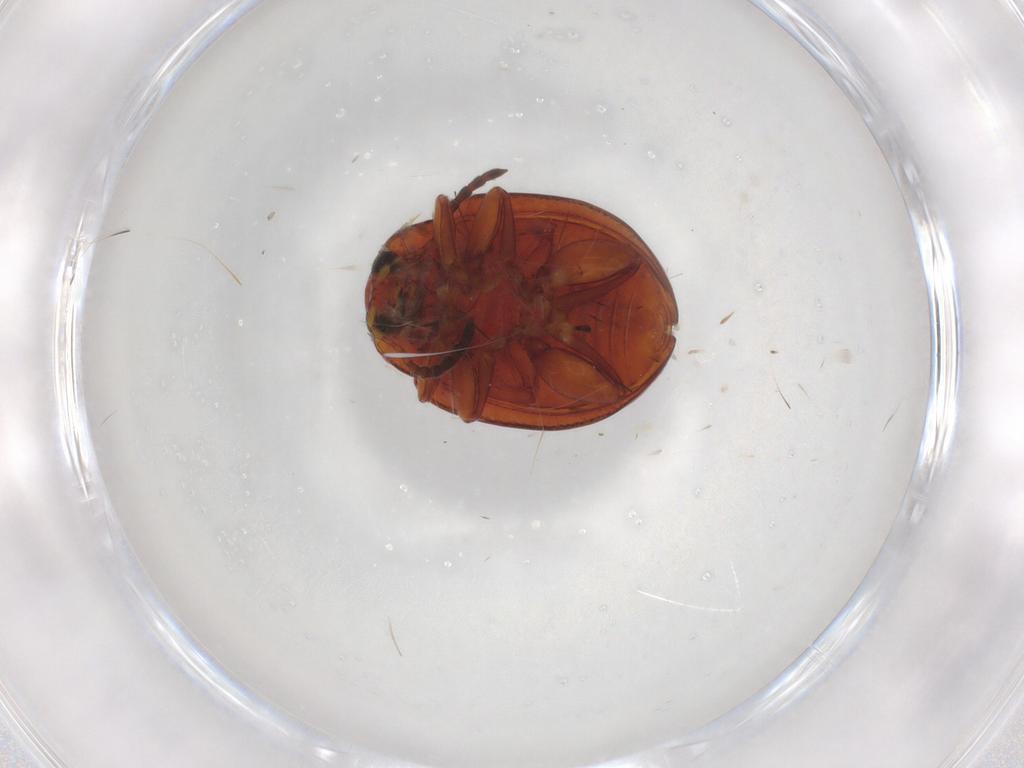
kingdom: Animalia
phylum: Arthropoda
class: Insecta
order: Coleoptera
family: Chrysomelidae
